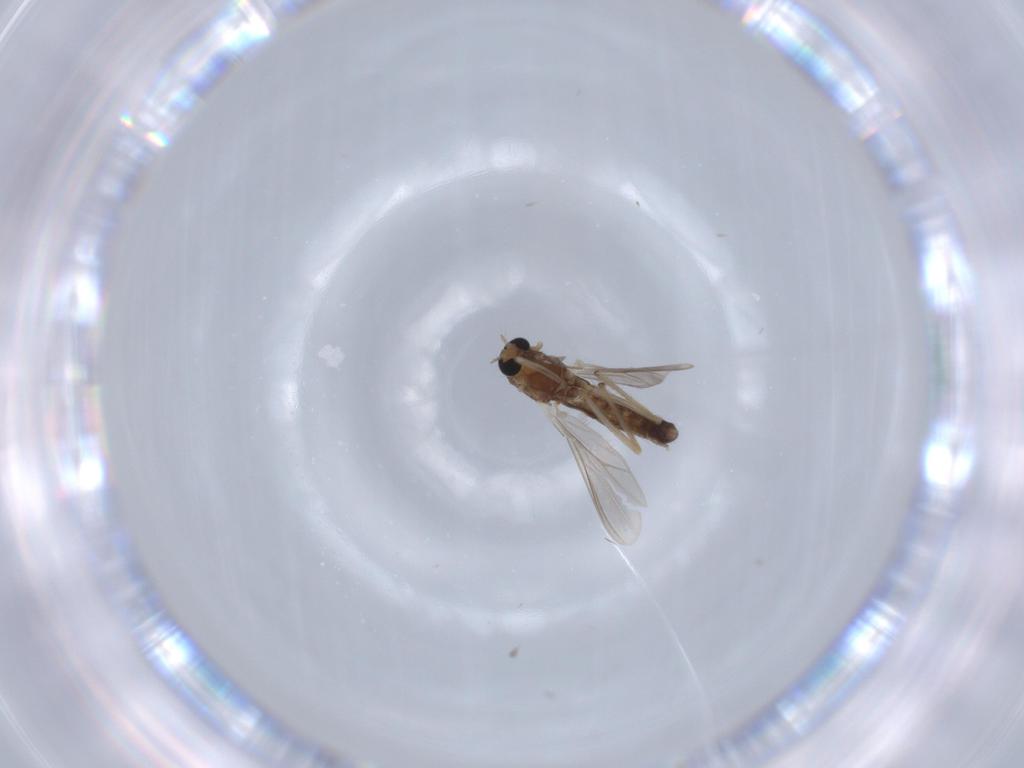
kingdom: Animalia
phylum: Arthropoda
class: Insecta
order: Diptera
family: Chironomidae
